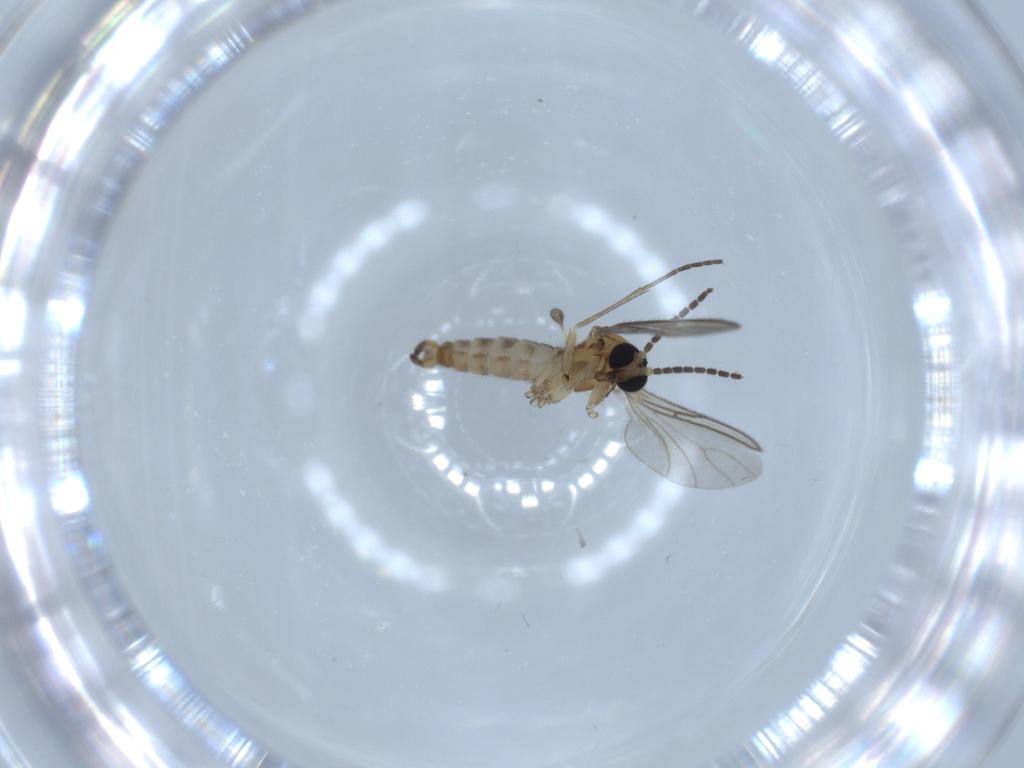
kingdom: Animalia
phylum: Arthropoda
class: Insecta
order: Diptera
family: Sciaridae
